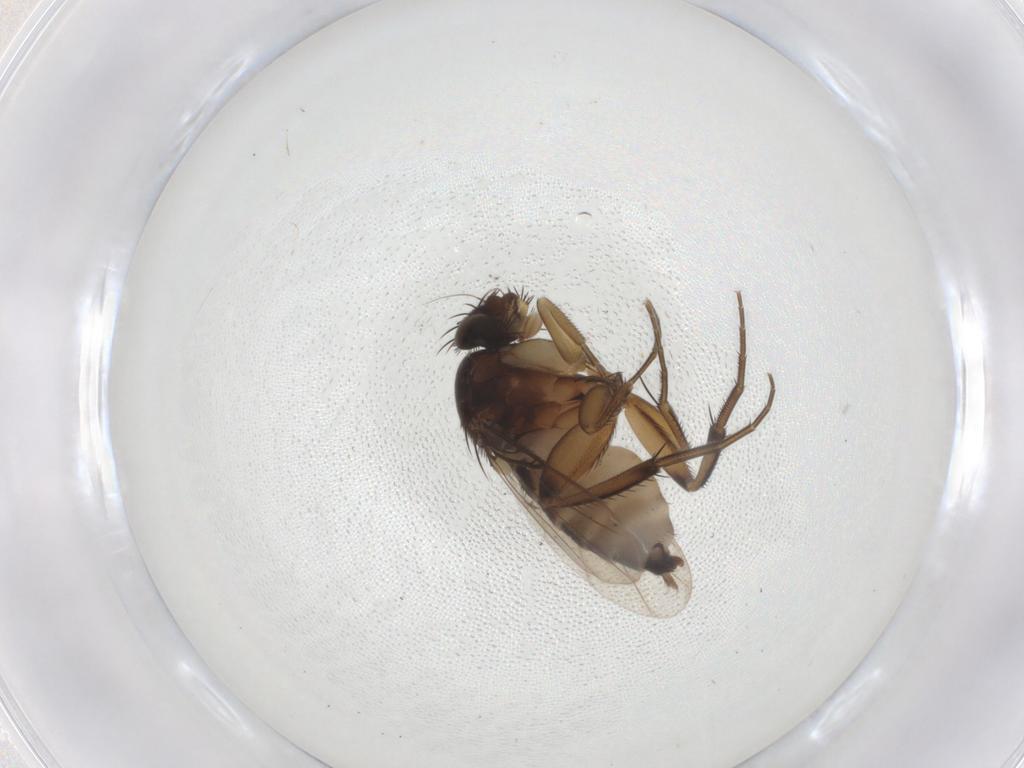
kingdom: Animalia
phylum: Arthropoda
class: Insecta
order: Diptera
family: Phoridae
